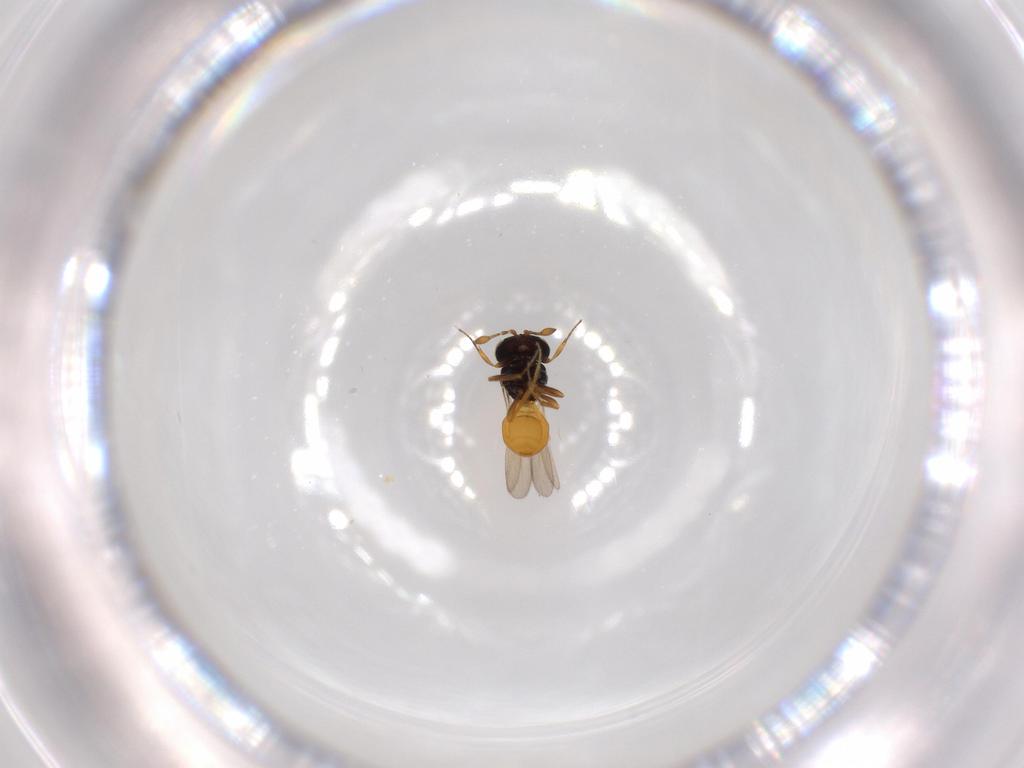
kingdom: Animalia
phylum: Arthropoda
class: Insecta
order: Hymenoptera
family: Scelionidae
